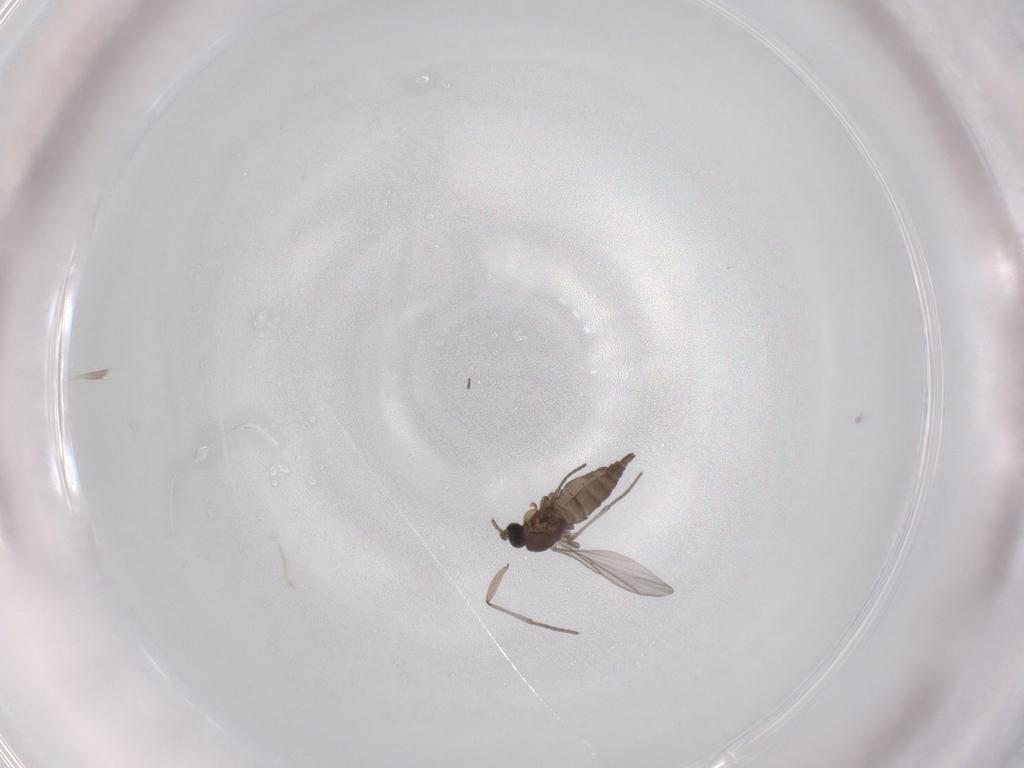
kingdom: Animalia
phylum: Arthropoda
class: Insecta
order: Diptera
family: Sciaridae
